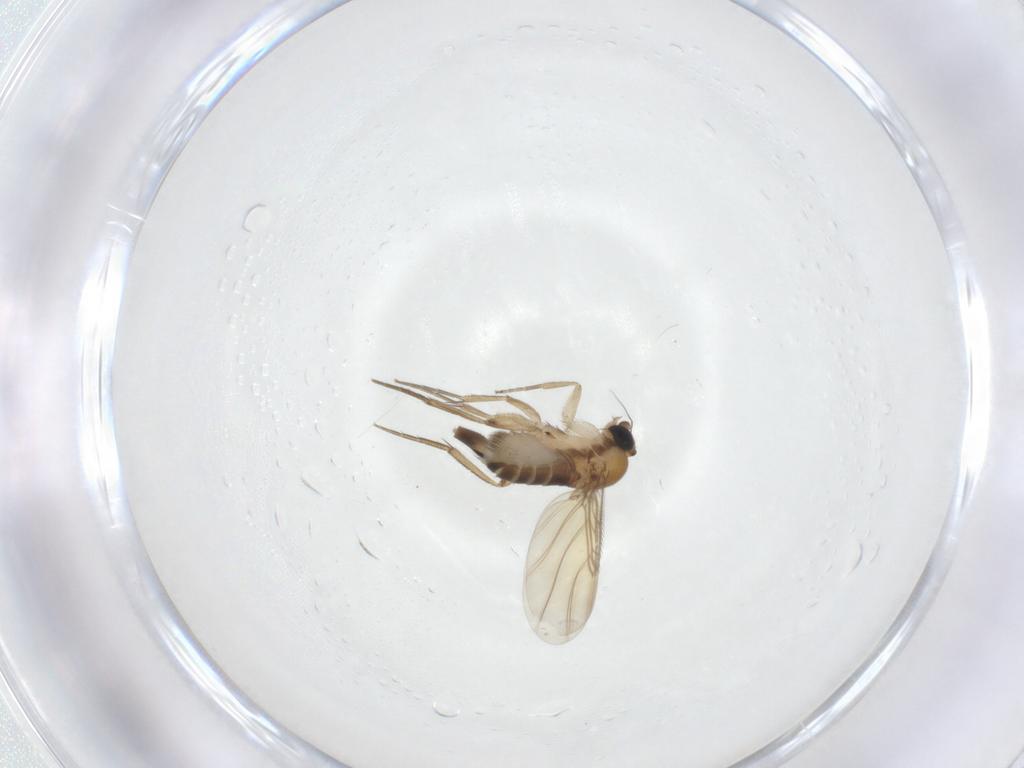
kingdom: Animalia
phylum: Arthropoda
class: Insecta
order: Diptera
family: Phoridae
